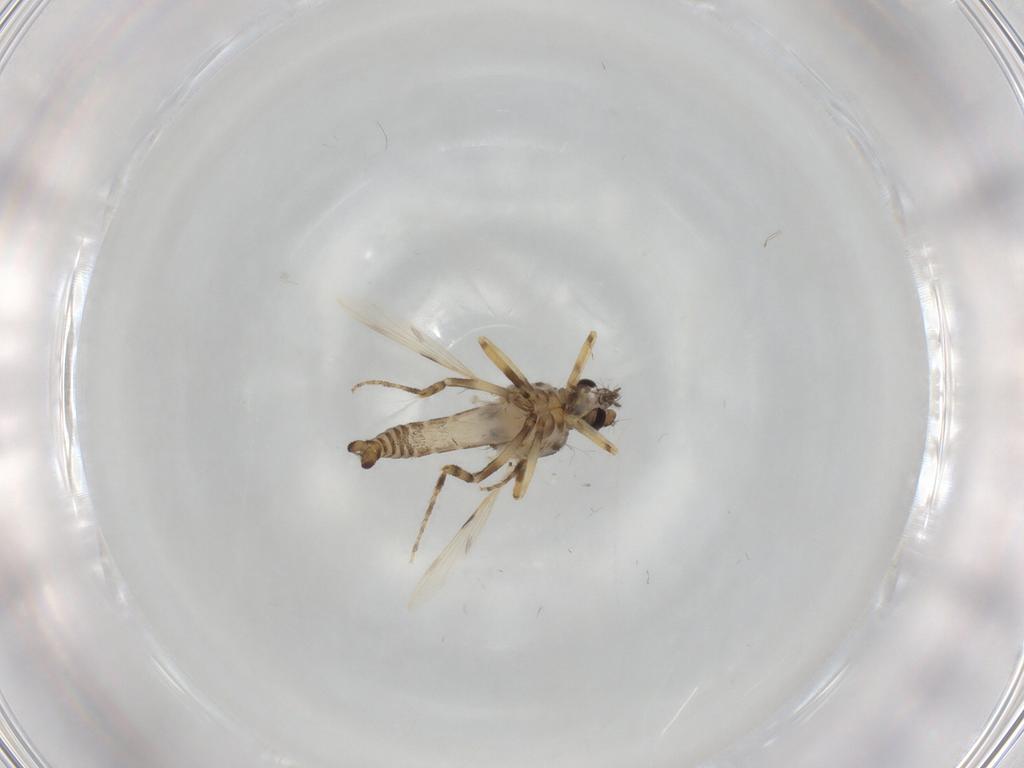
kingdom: Animalia
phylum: Arthropoda
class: Insecta
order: Diptera
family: Ceratopogonidae
